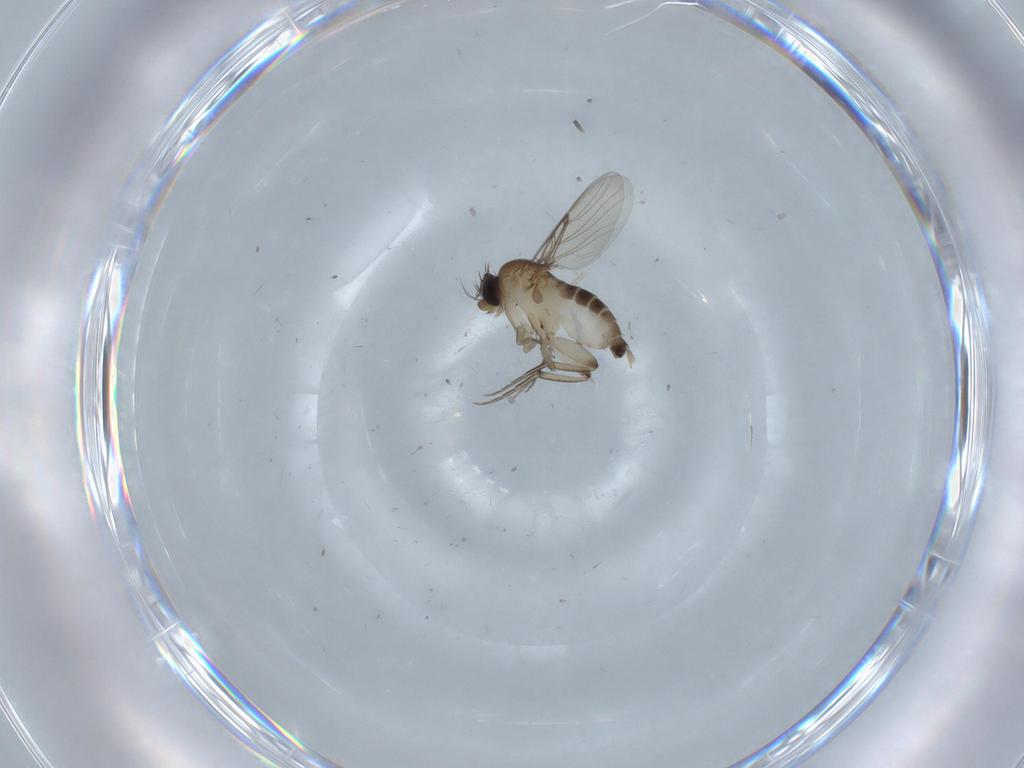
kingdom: Animalia
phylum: Arthropoda
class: Insecta
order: Diptera
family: Phoridae
